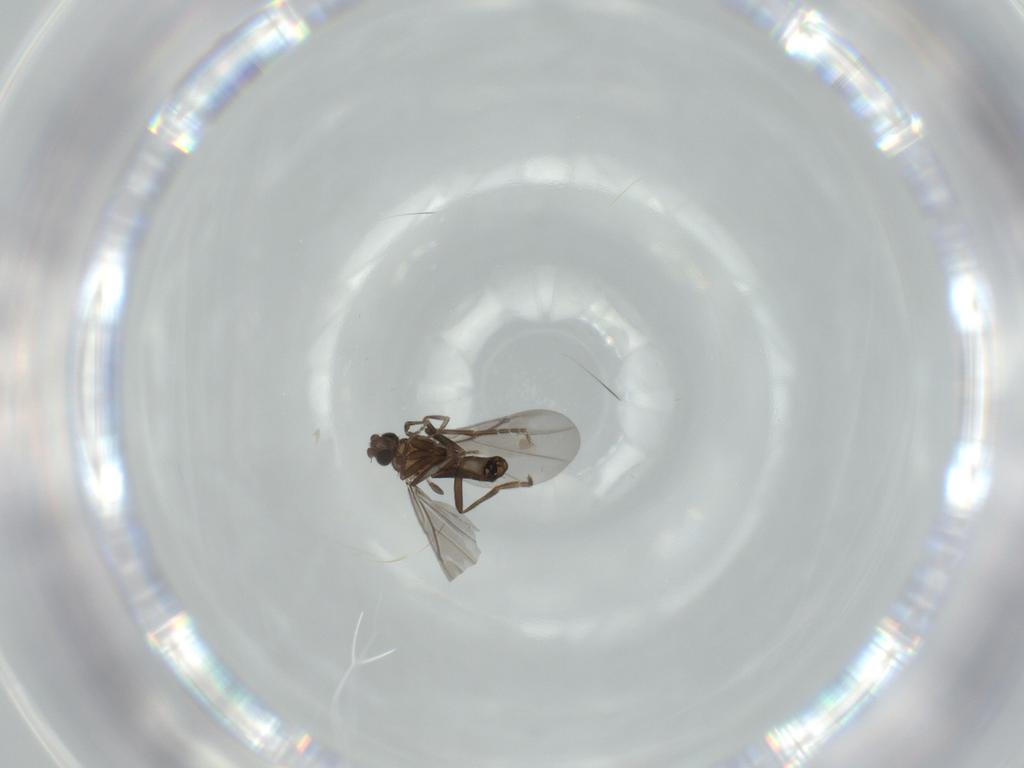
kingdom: Animalia
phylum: Arthropoda
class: Insecta
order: Diptera
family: Phoridae
